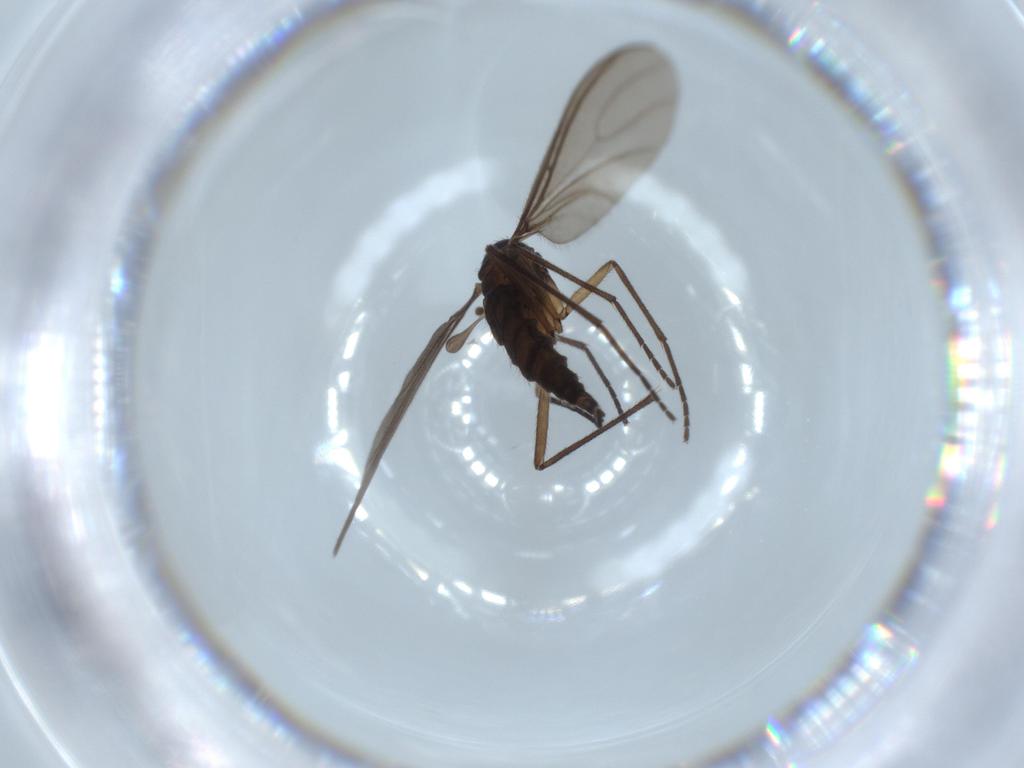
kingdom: Animalia
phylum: Arthropoda
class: Insecta
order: Diptera
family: Sciaridae
